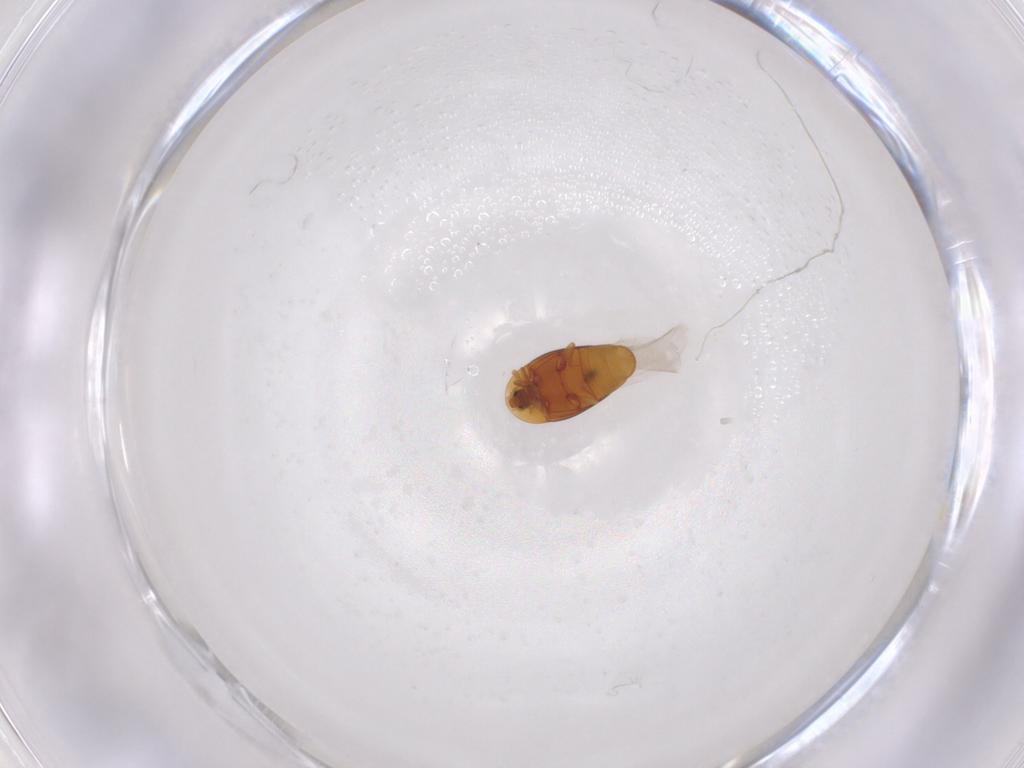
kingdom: Animalia
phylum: Arthropoda
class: Insecta
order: Coleoptera
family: Corylophidae
